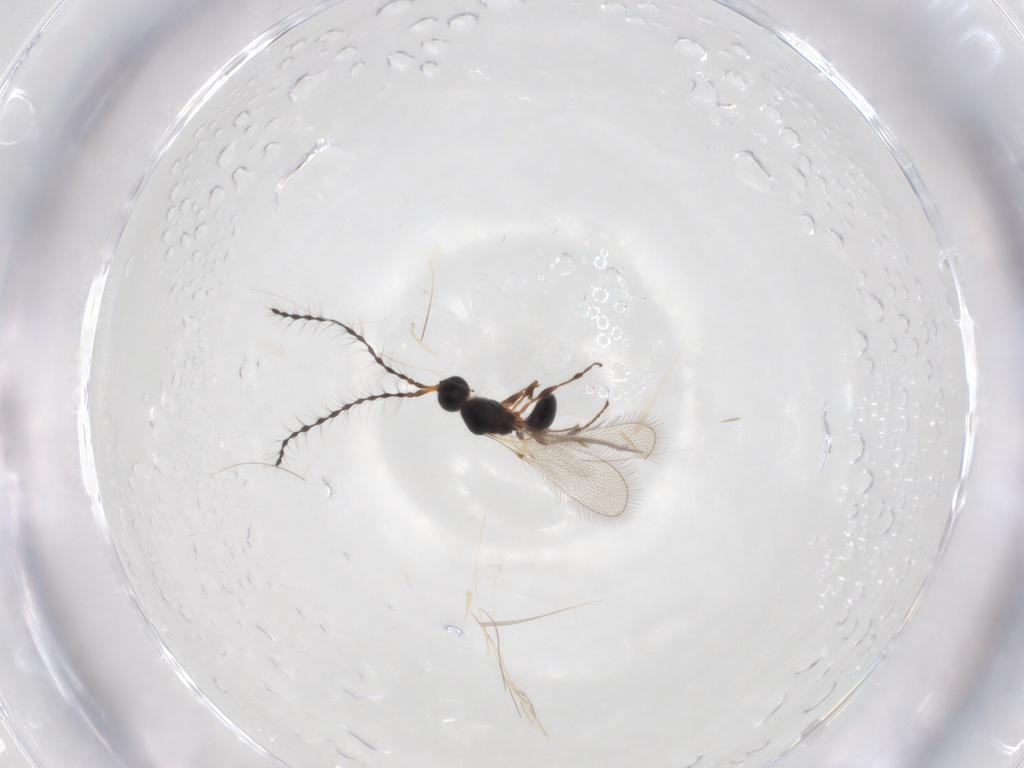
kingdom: Animalia
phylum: Arthropoda
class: Insecta
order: Hymenoptera
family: Diapriidae
